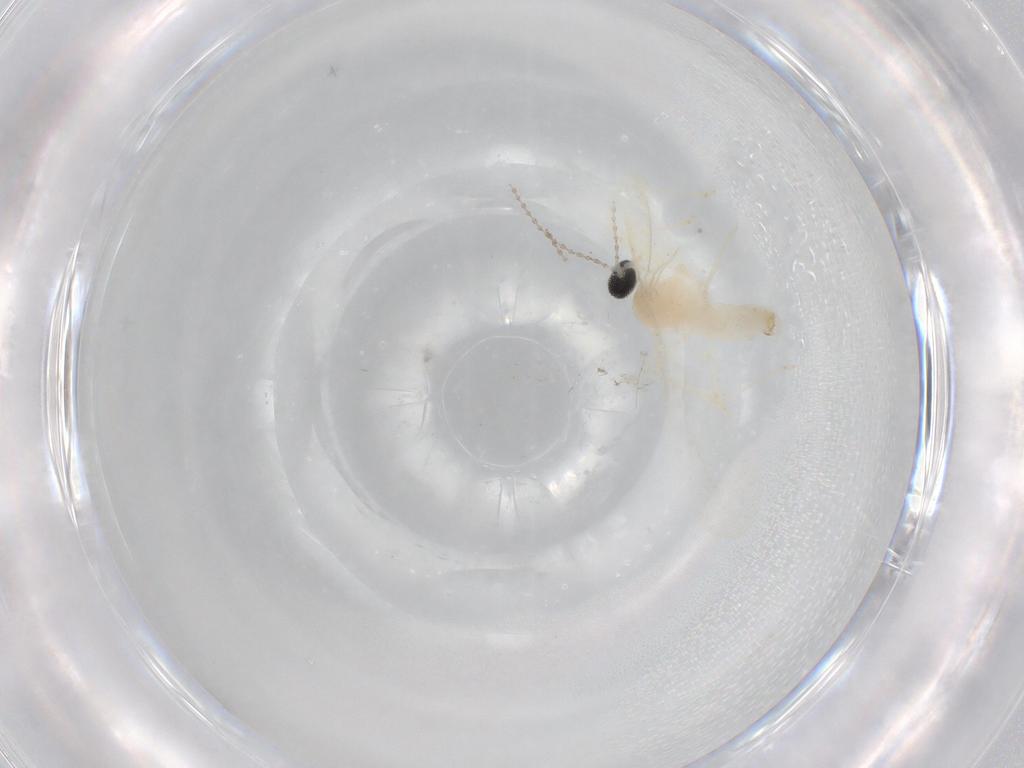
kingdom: Animalia
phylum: Arthropoda
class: Insecta
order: Diptera
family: Cecidomyiidae
